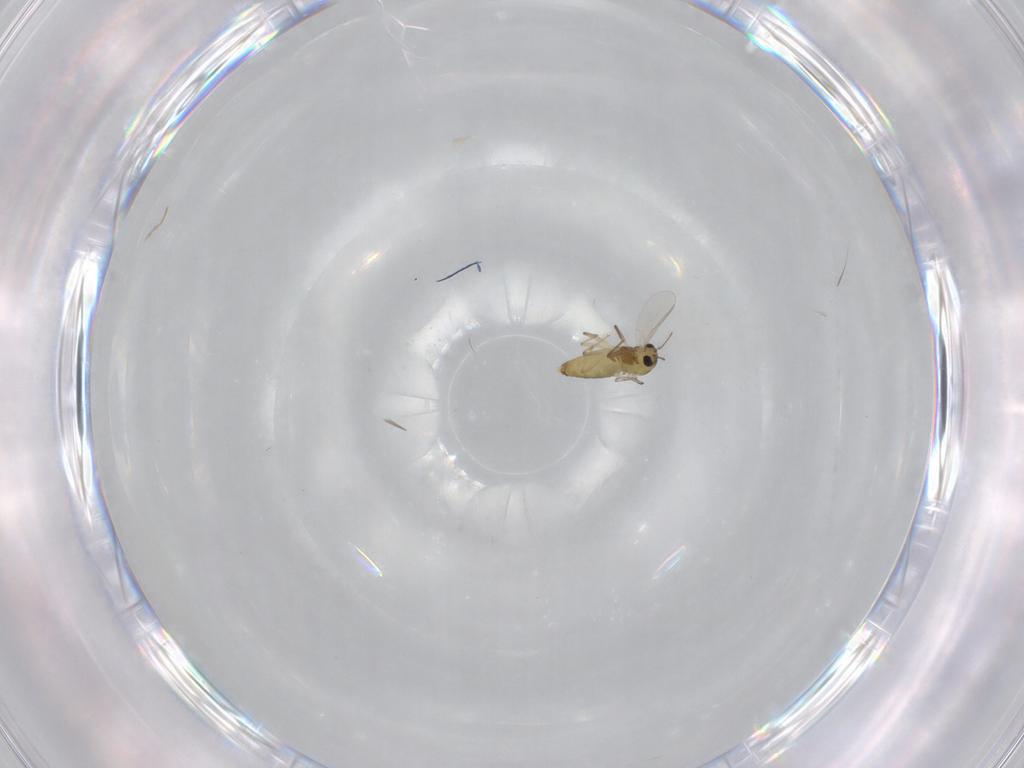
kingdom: Animalia
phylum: Arthropoda
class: Insecta
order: Diptera
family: Chironomidae
